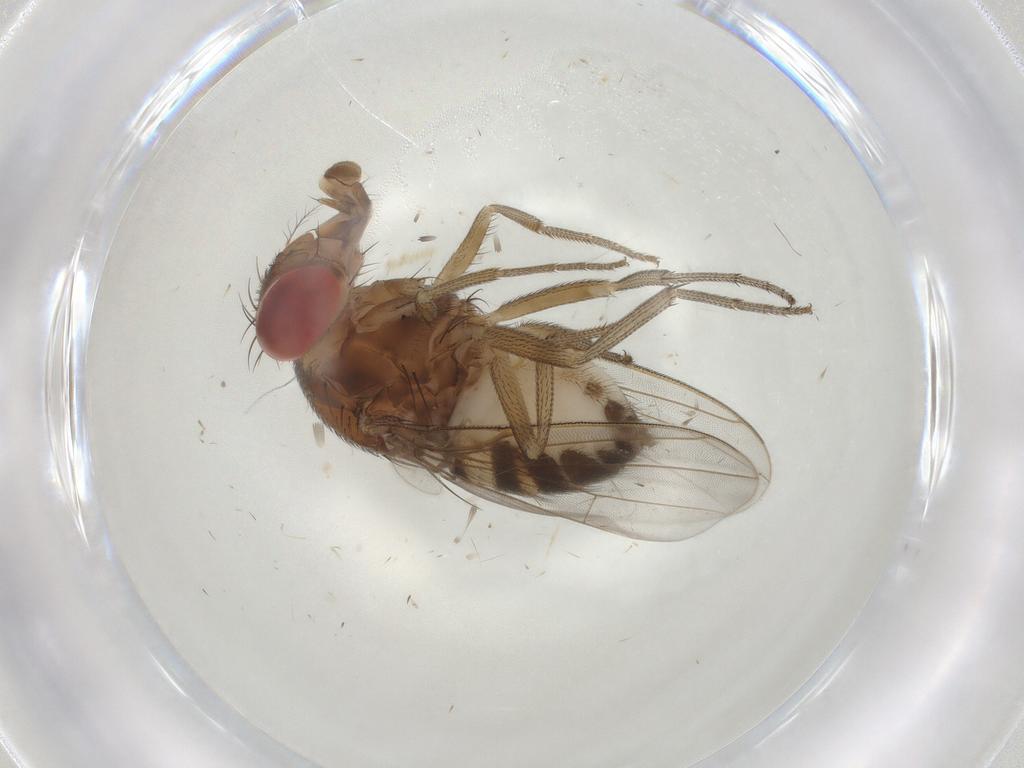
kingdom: Animalia
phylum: Arthropoda
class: Insecta
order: Diptera
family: Drosophilidae
